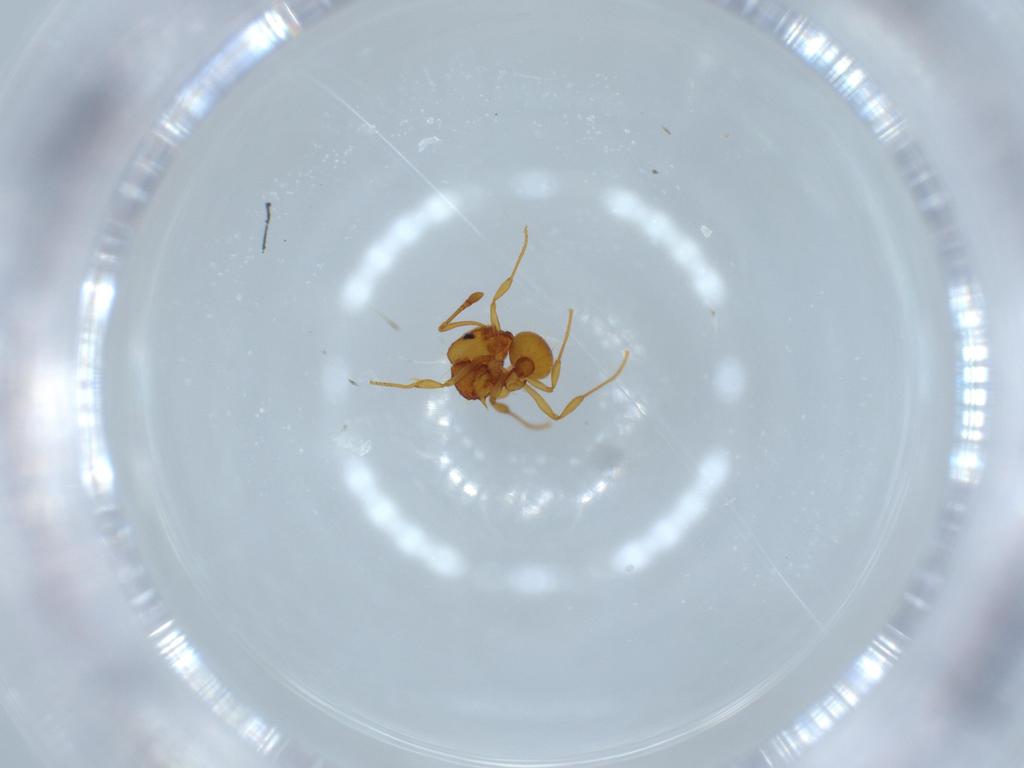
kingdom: Animalia
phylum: Arthropoda
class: Insecta
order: Hymenoptera
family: Formicidae
